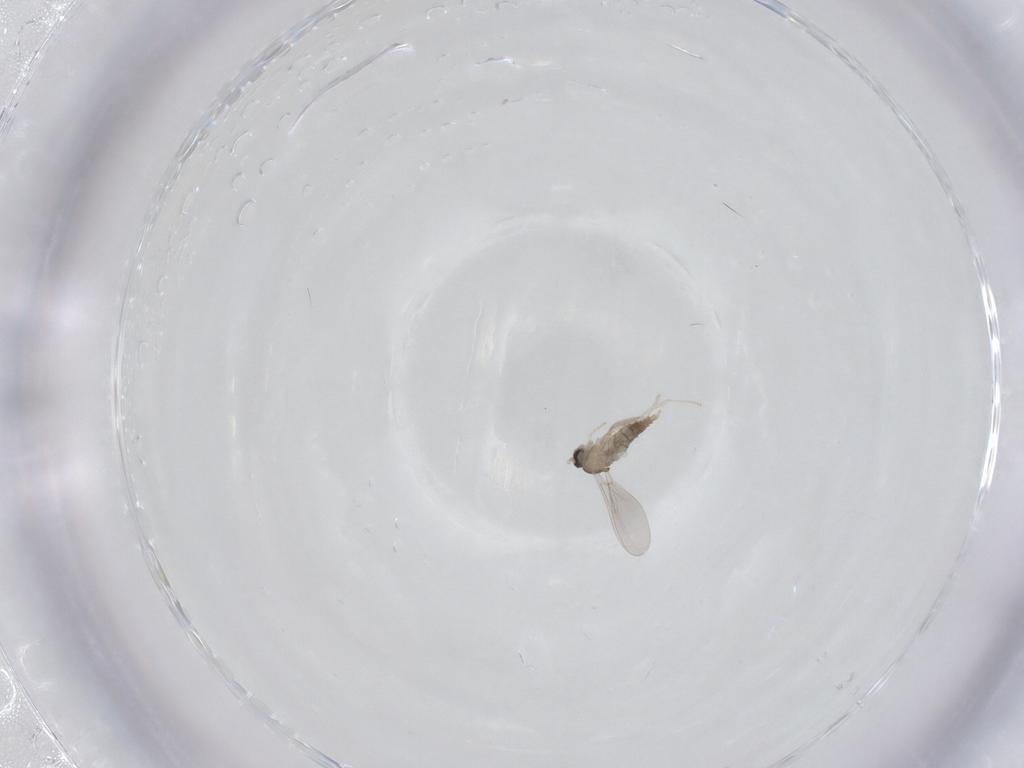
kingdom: Animalia
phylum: Arthropoda
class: Insecta
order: Diptera
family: Cecidomyiidae
